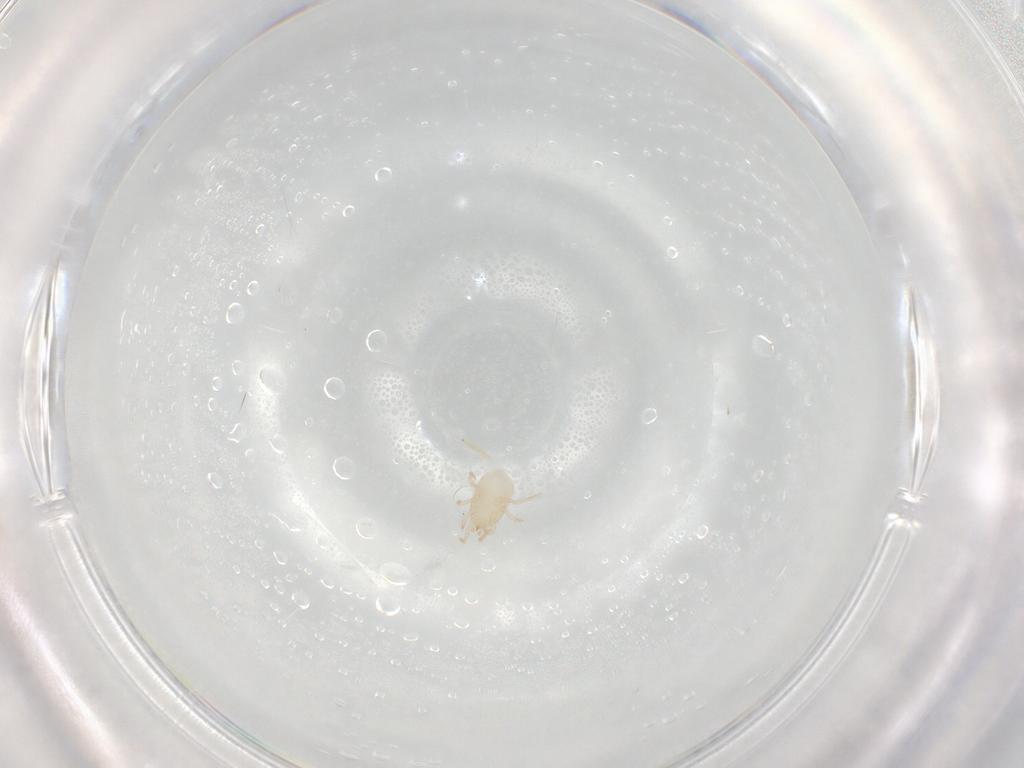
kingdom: Animalia
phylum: Arthropoda
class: Arachnida
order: Mesostigmata
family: Melicharidae
